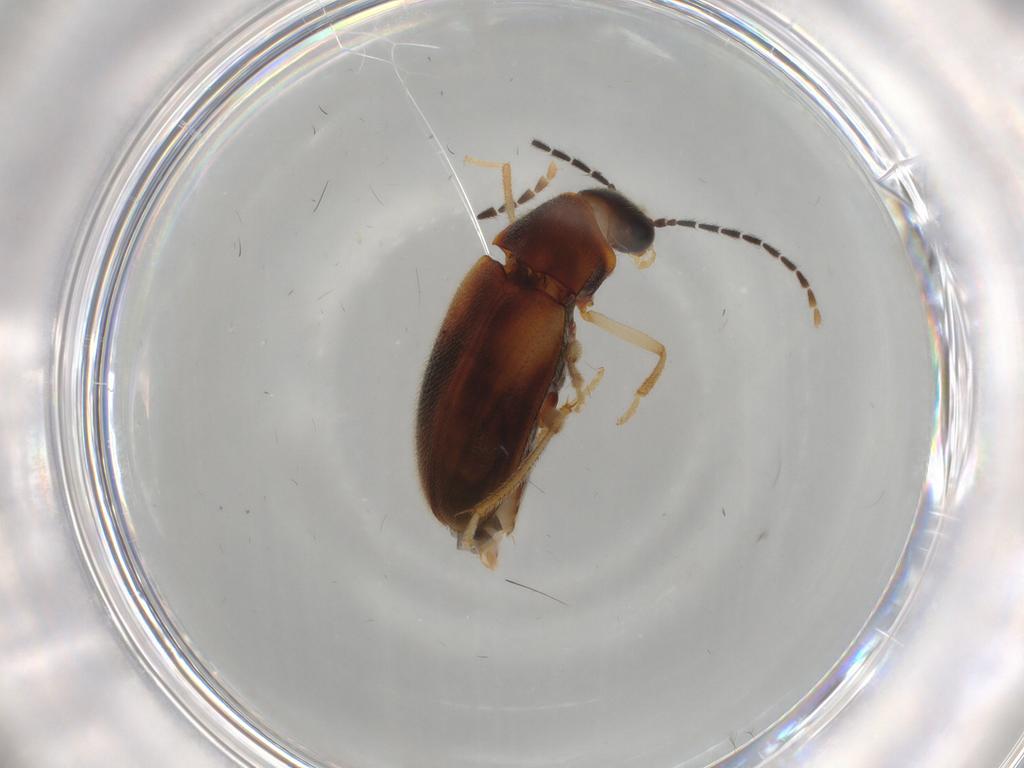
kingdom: Animalia
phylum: Arthropoda
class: Insecta
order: Coleoptera
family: Ptilodactylidae
